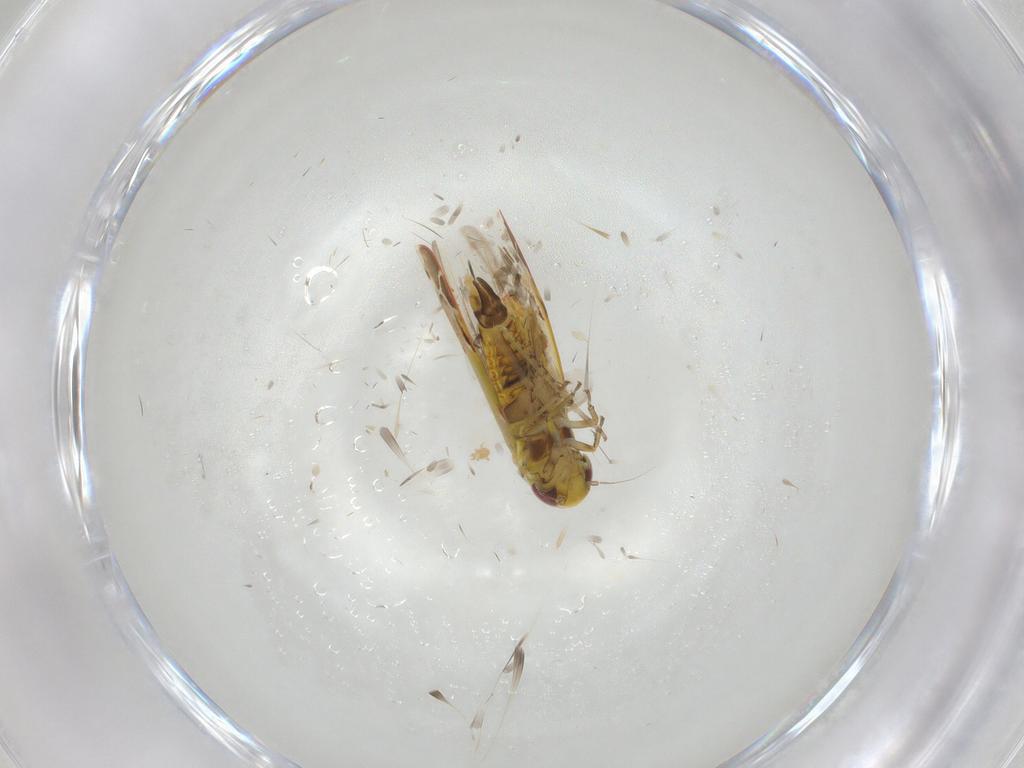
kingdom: Animalia
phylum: Arthropoda
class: Insecta
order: Hemiptera
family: Cicadellidae
